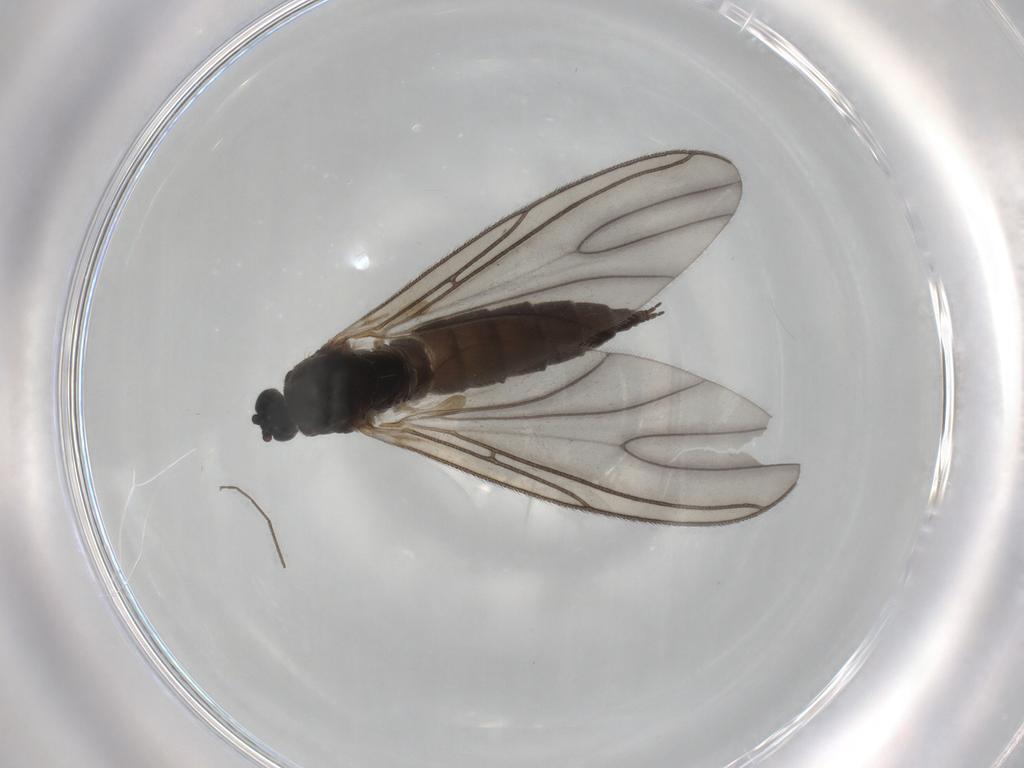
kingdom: Animalia
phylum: Arthropoda
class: Insecta
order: Diptera
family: Sciaridae
